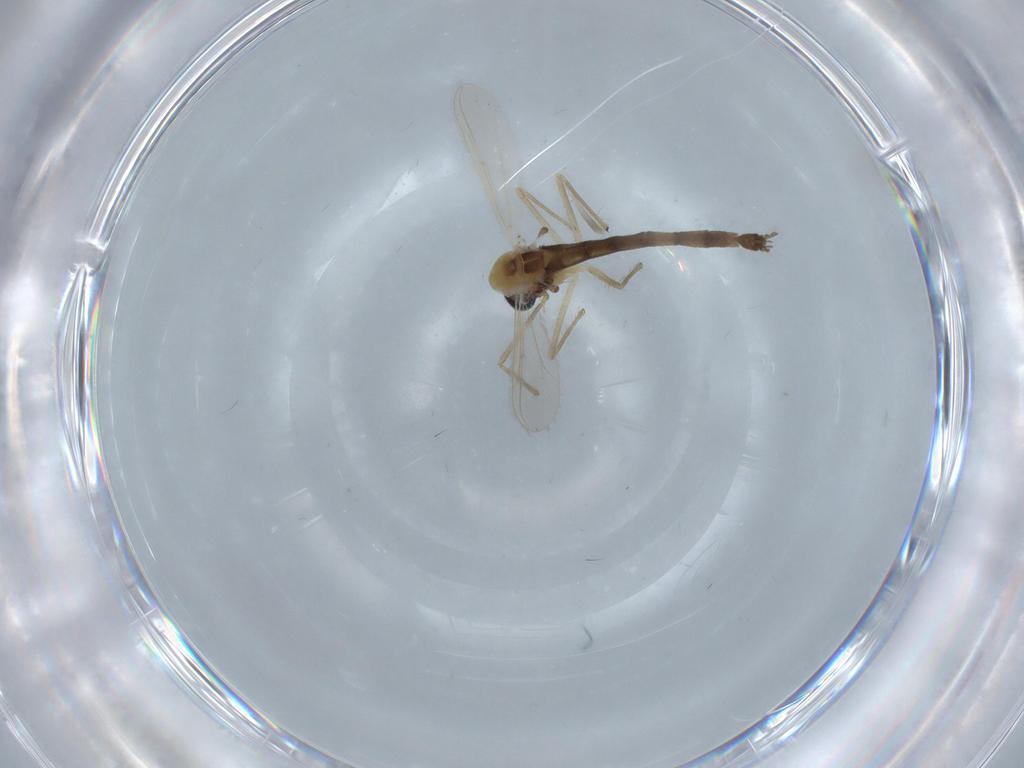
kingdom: Animalia
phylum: Arthropoda
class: Insecta
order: Diptera
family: Chironomidae
